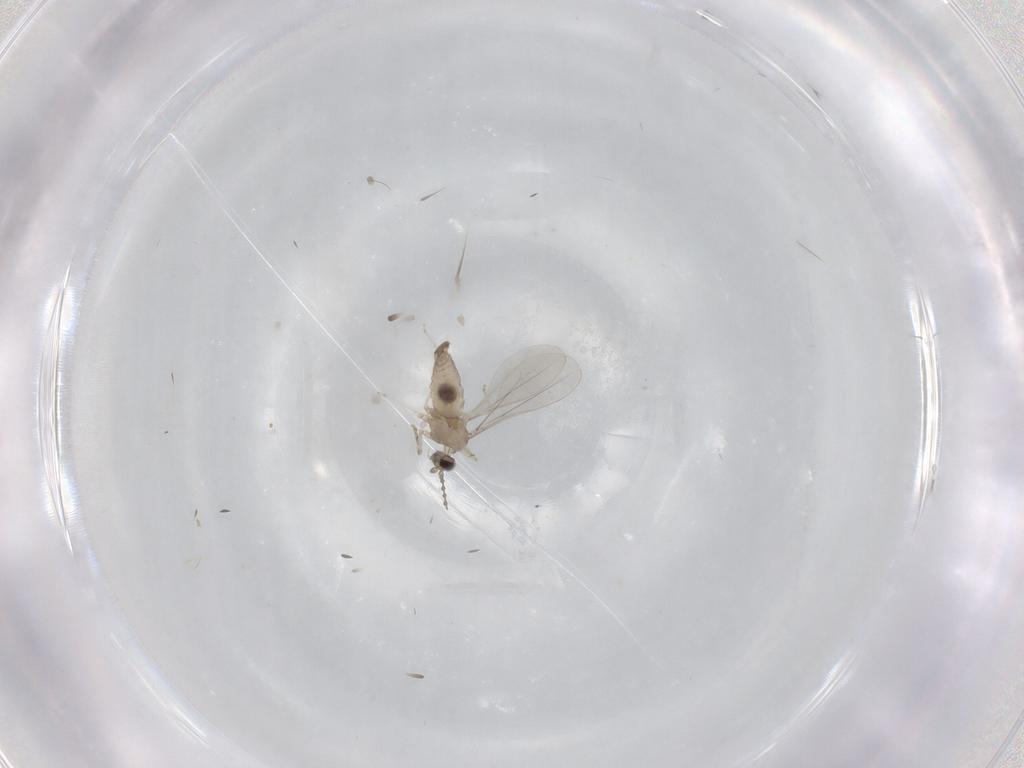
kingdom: Animalia
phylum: Arthropoda
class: Insecta
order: Diptera
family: Dolichopodidae
